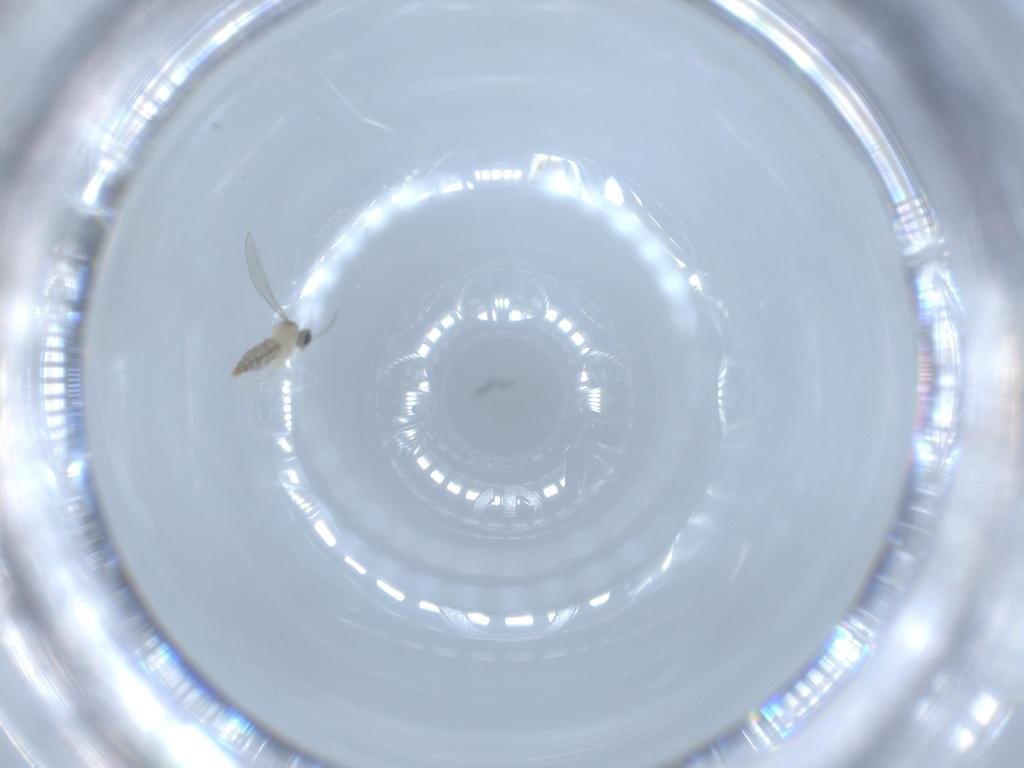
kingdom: Animalia
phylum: Arthropoda
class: Insecta
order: Diptera
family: Cecidomyiidae
